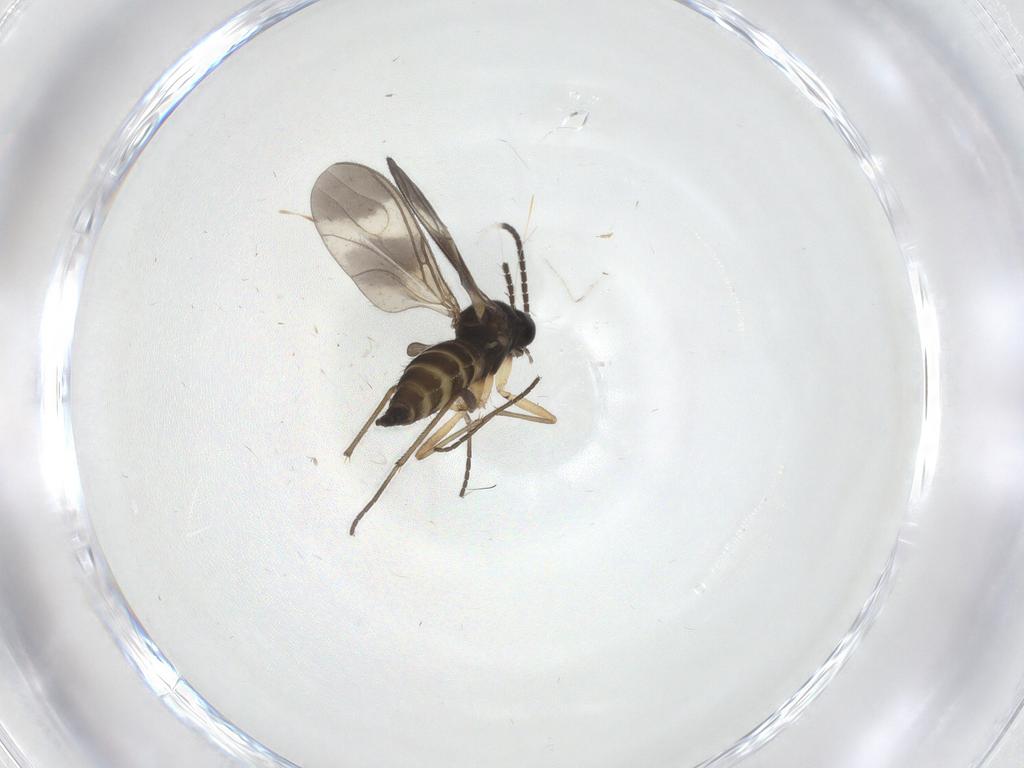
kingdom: Animalia
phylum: Arthropoda
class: Insecta
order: Diptera
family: Sciaridae
